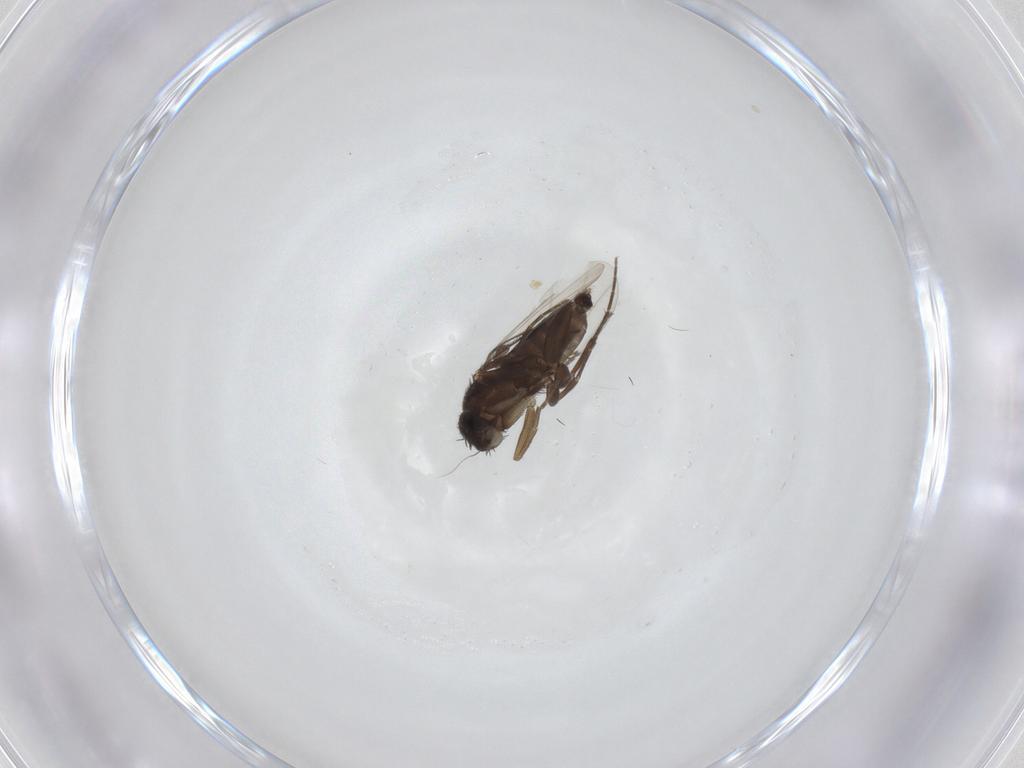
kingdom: Animalia
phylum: Arthropoda
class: Insecta
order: Diptera
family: Phoridae
